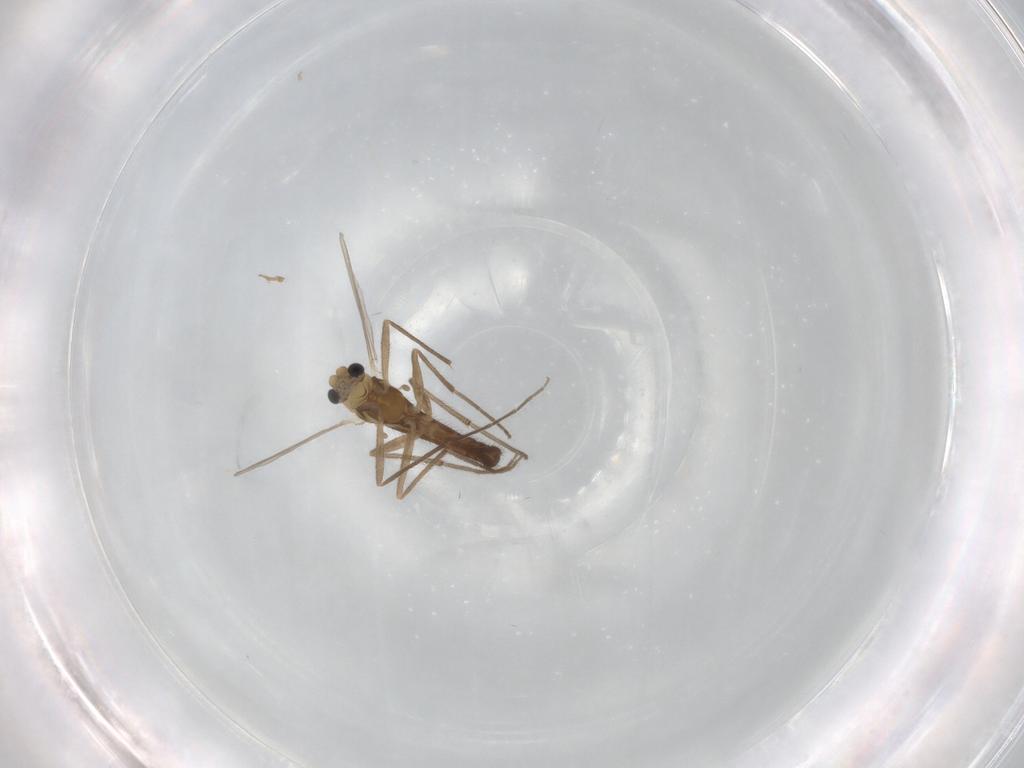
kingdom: Animalia
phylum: Arthropoda
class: Insecta
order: Diptera
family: Chironomidae
